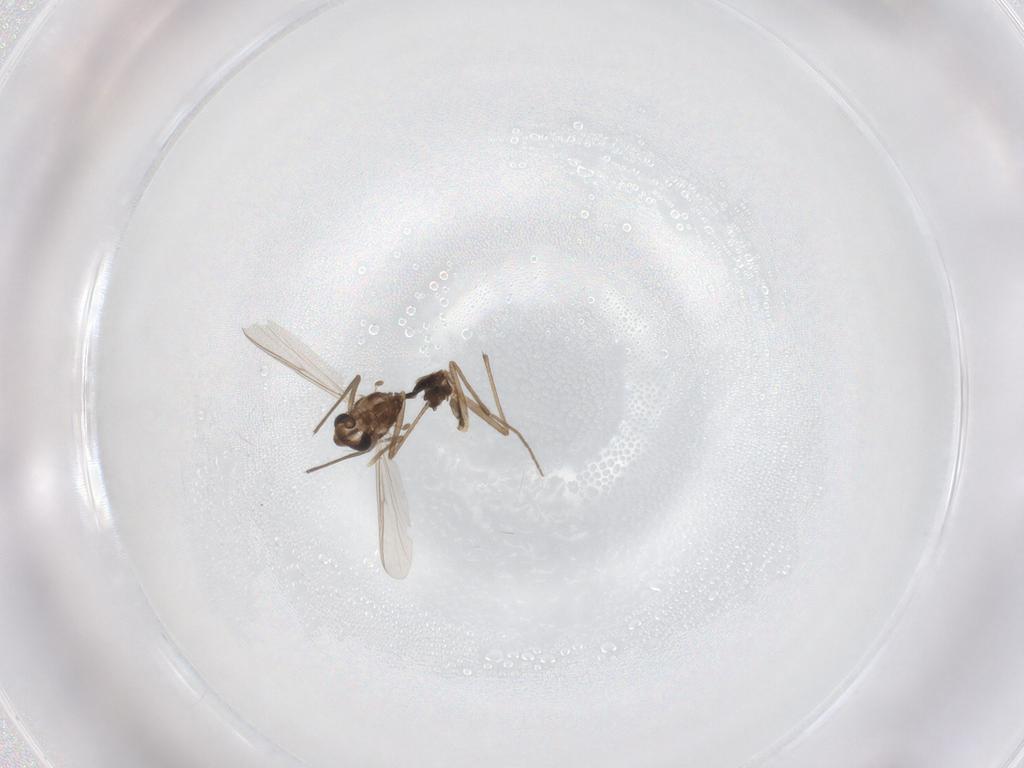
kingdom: Animalia
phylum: Arthropoda
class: Insecta
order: Diptera
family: Chironomidae
